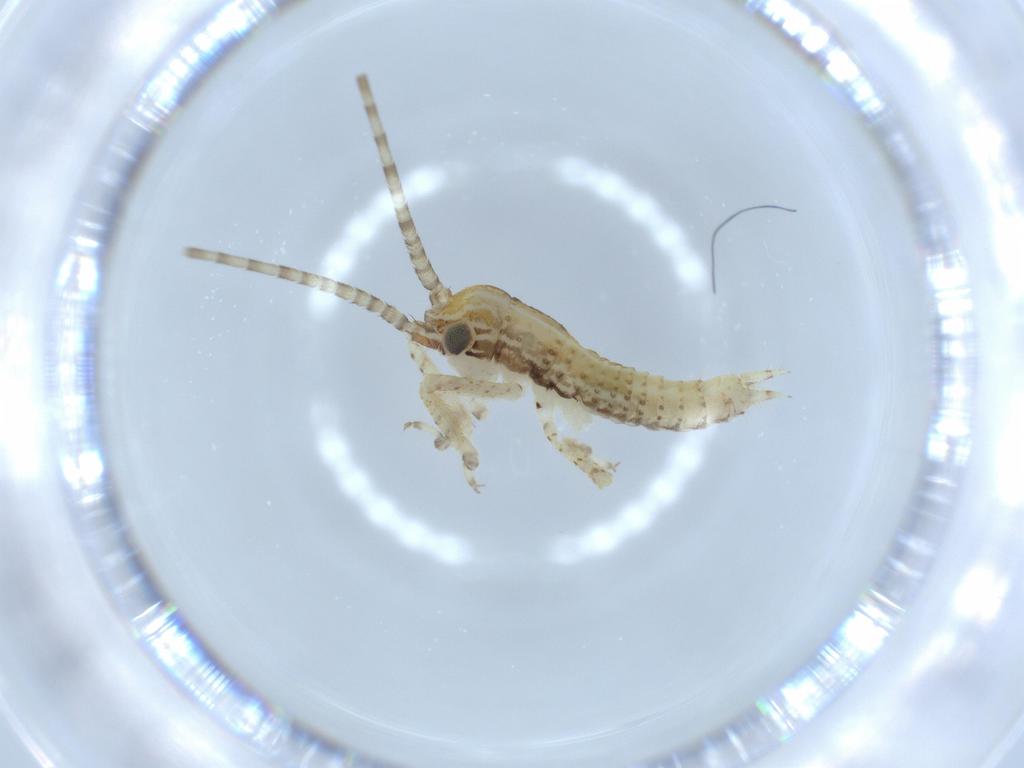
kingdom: Animalia
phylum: Arthropoda
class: Insecta
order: Orthoptera
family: Gryllidae
